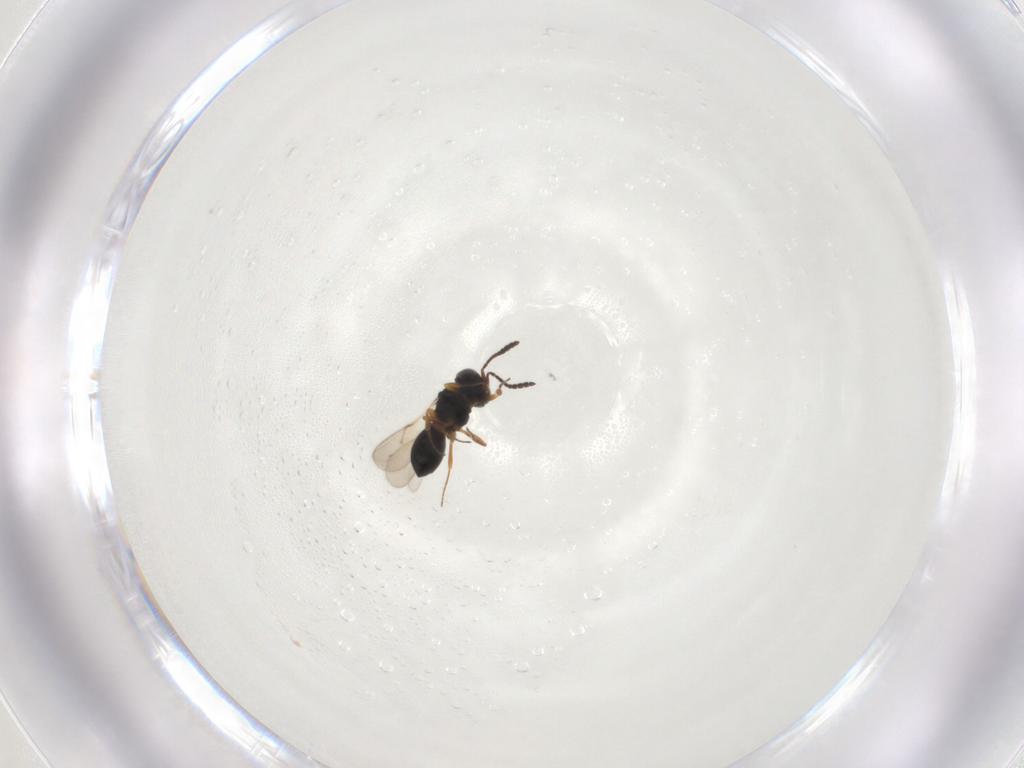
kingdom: Animalia
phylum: Arthropoda
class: Insecta
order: Hymenoptera
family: Scelionidae
